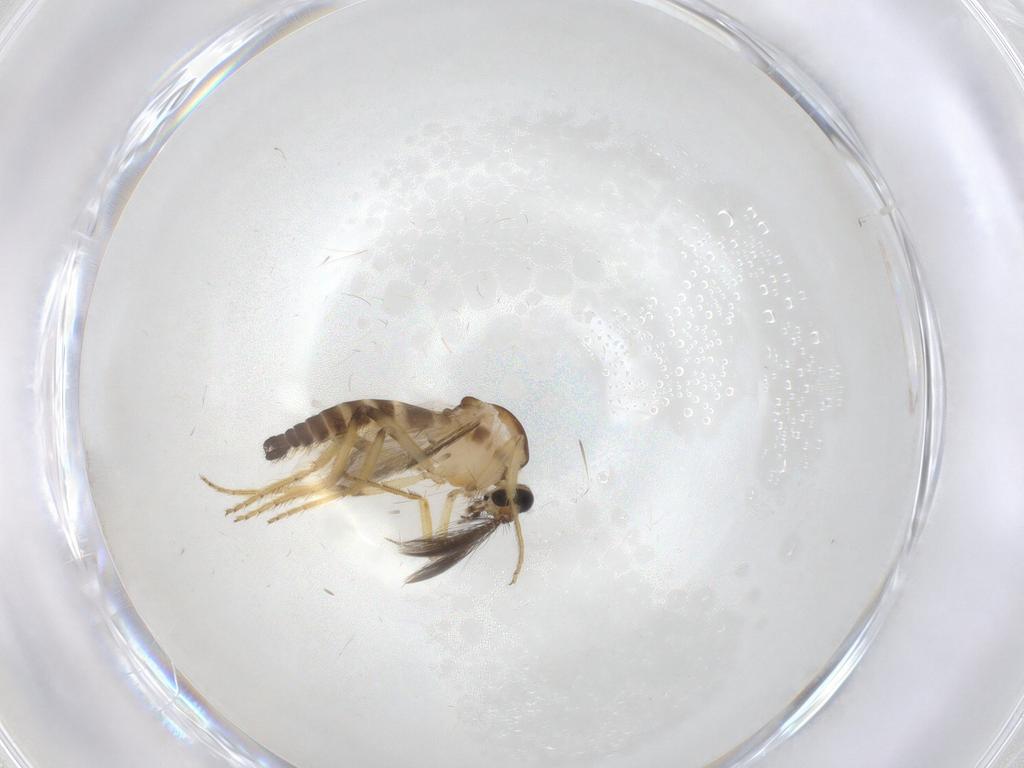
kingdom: Animalia
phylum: Arthropoda
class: Insecta
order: Diptera
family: Ceratopogonidae
